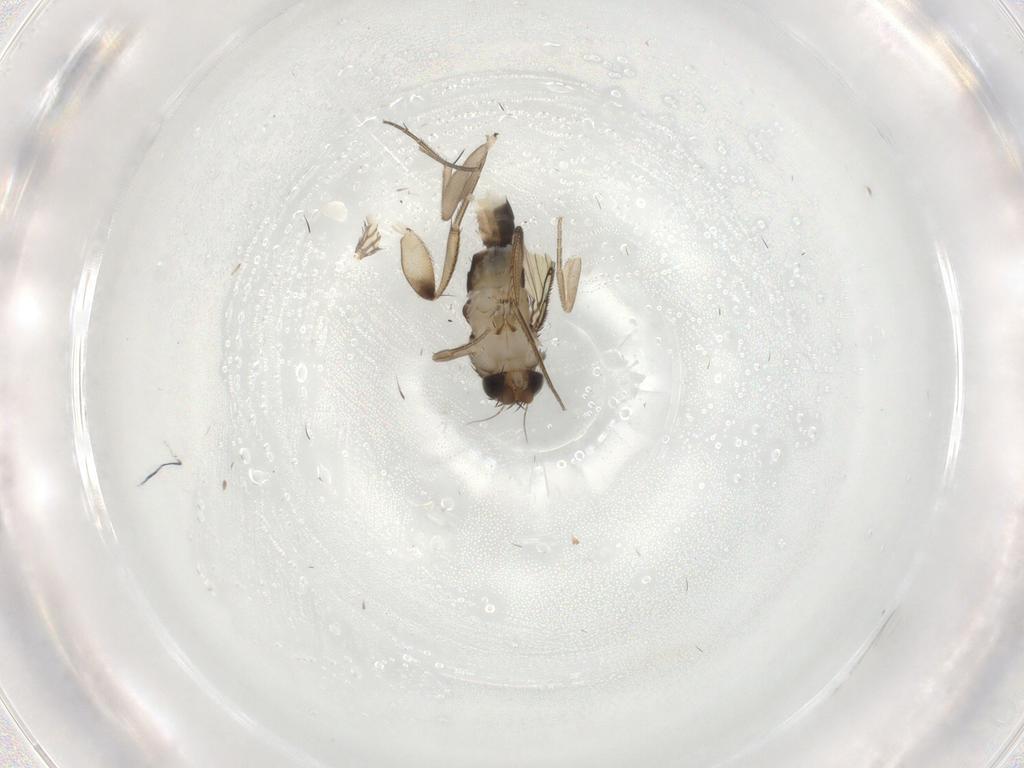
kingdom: Animalia
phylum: Arthropoda
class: Insecta
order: Diptera
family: Phoridae
